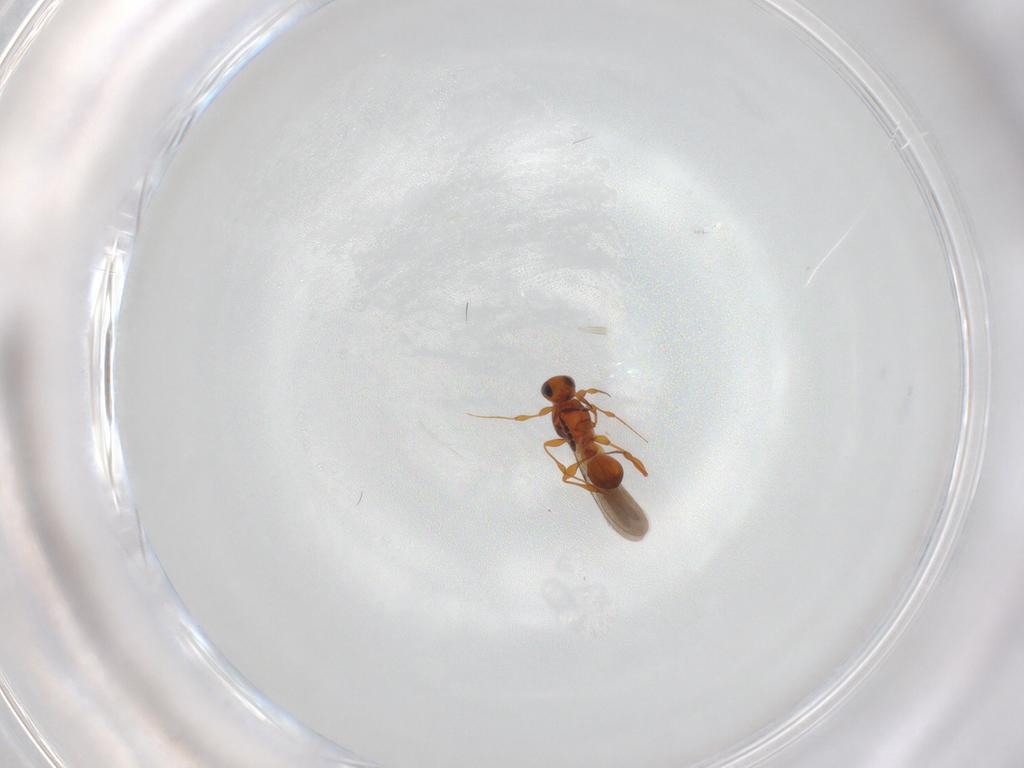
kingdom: Animalia
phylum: Arthropoda
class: Insecta
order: Hymenoptera
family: Platygastridae
